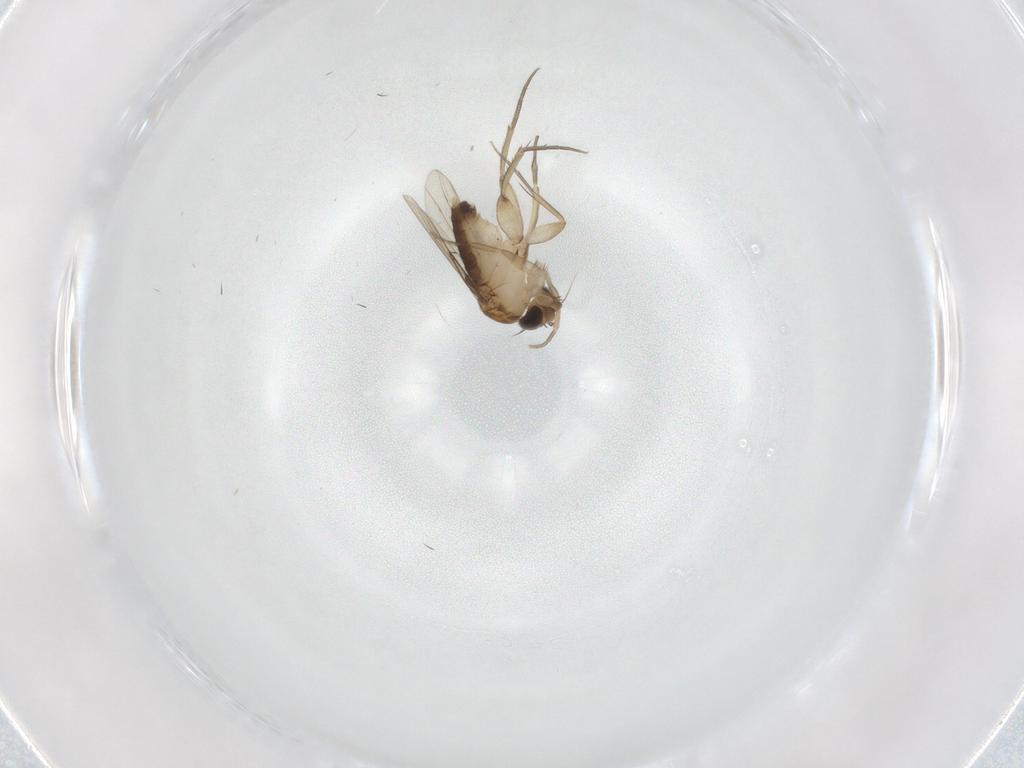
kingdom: Animalia
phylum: Arthropoda
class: Insecta
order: Diptera
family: Phoridae
